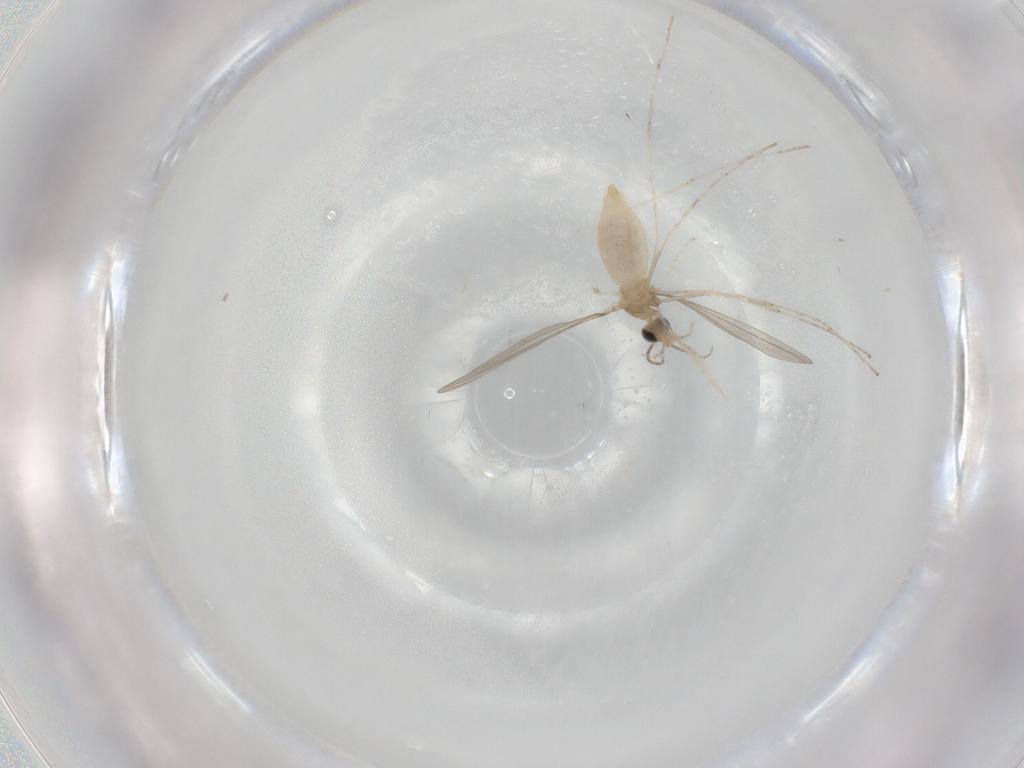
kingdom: Animalia
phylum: Arthropoda
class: Insecta
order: Diptera
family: Cecidomyiidae
